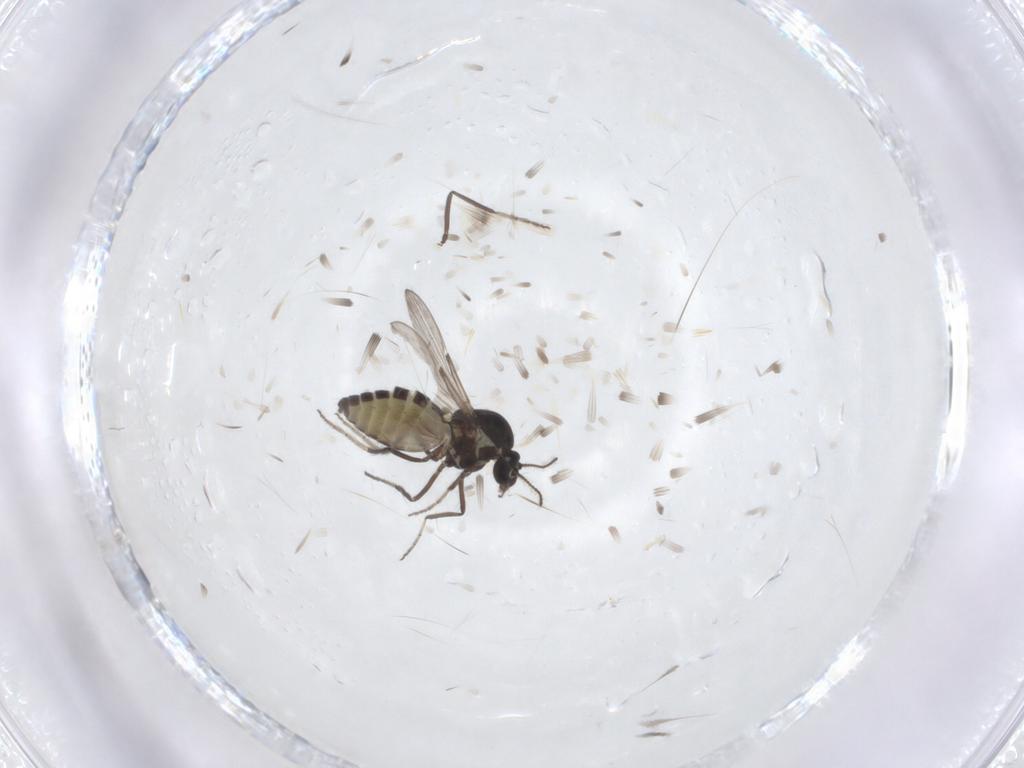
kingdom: Animalia
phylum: Arthropoda
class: Insecta
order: Diptera
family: Ceratopogonidae
